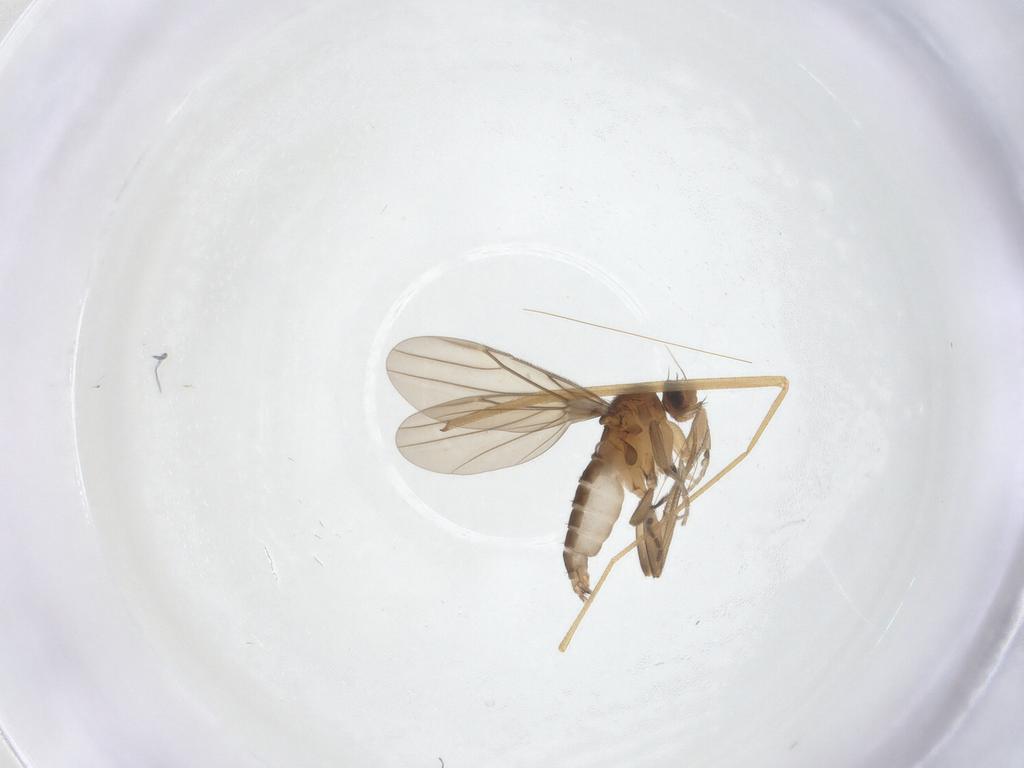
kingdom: Animalia
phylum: Arthropoda
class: Insecta
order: Diptera
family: Limoniidae
